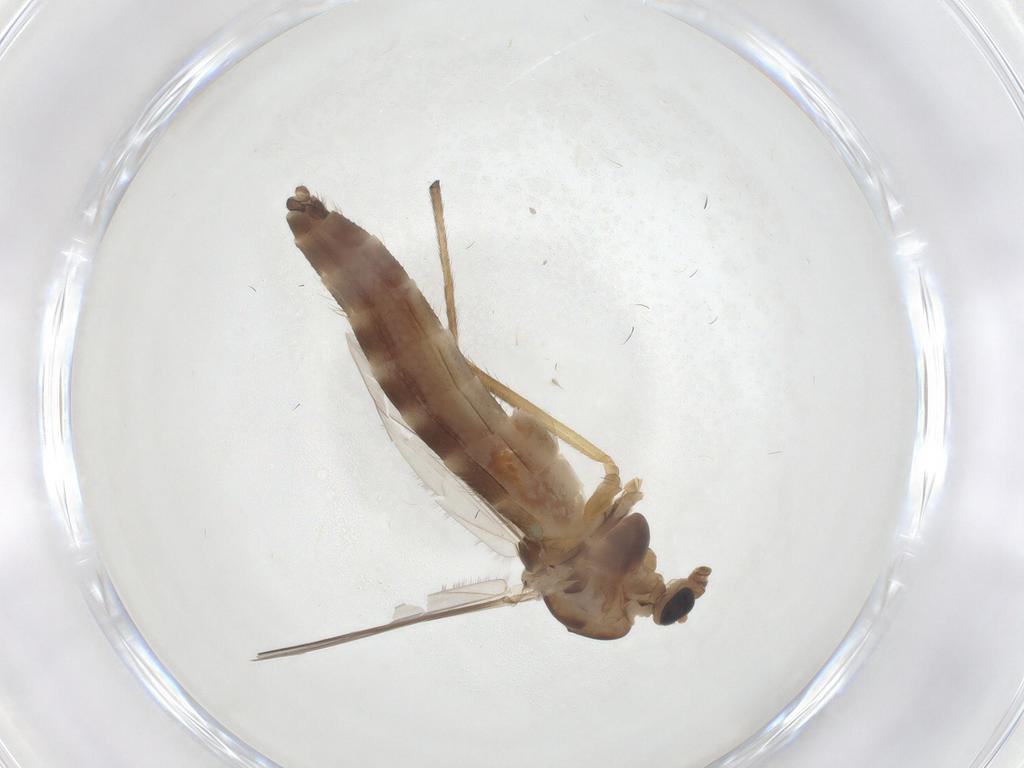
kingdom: Animalia
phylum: Arthropoda
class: Insecta
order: Diptera
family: Chironomidae
